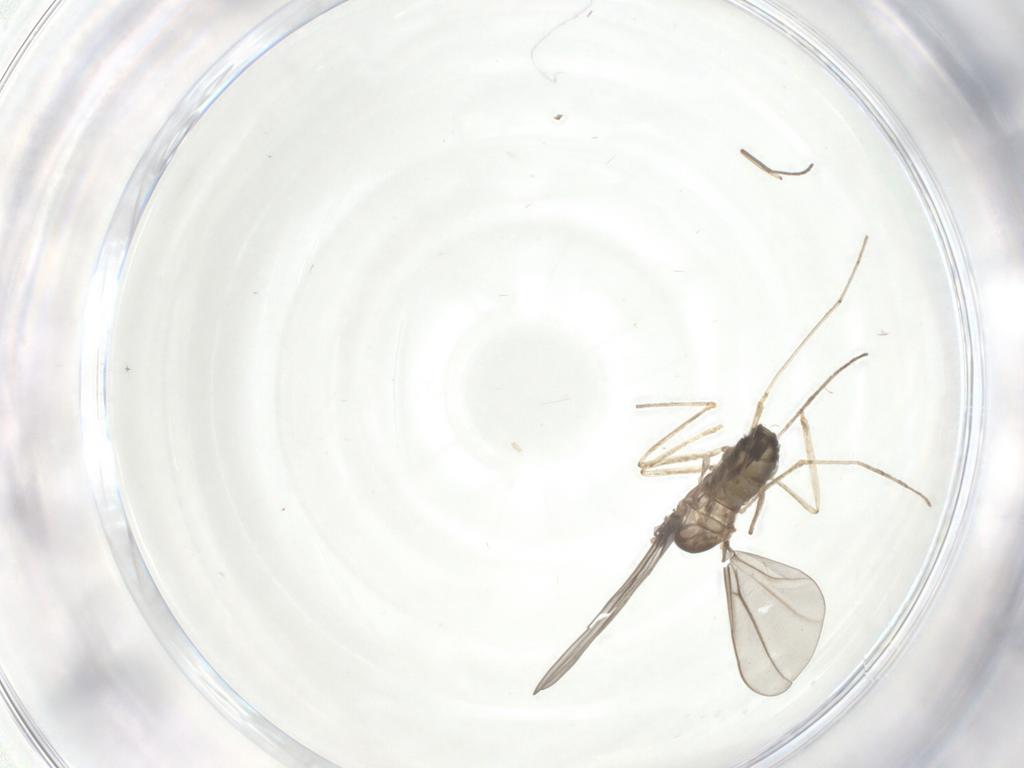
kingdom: Animalia
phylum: Arthropoda
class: Insecta
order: Diptera
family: Cecidomyiidae
